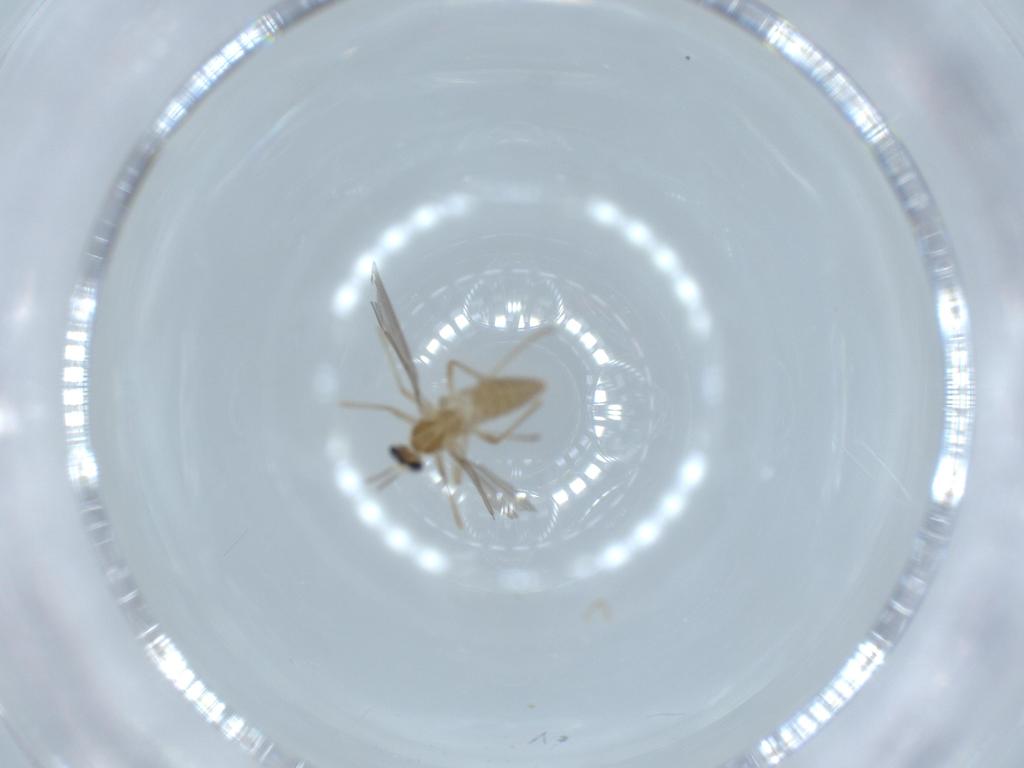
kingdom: Animalia
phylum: Arthropoda
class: Insecta
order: Diptera
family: Cecidomyiidae
